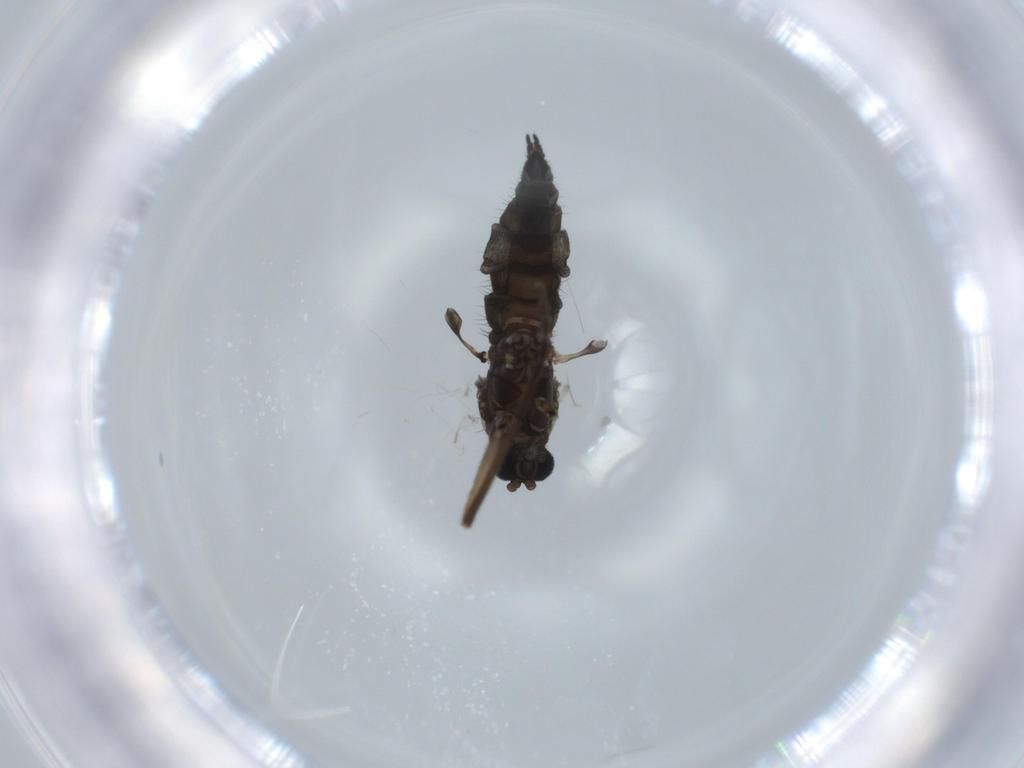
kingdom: Animalia
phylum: Arthropoda
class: Insecta
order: Diptera
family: Sciaridae
